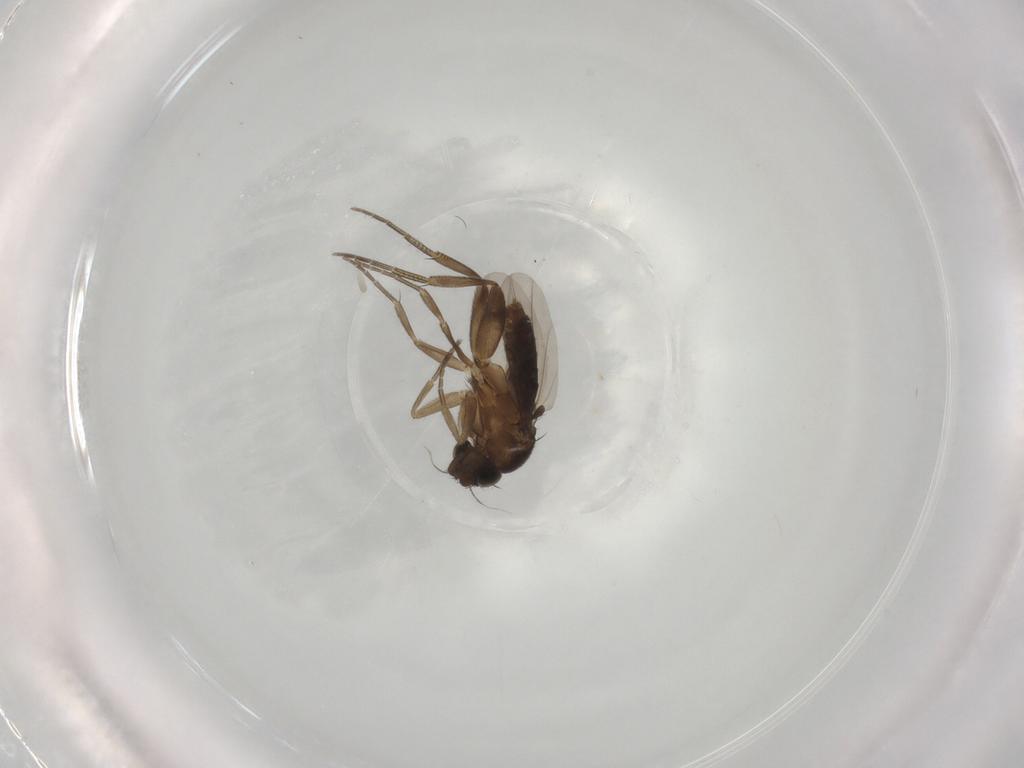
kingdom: Animalia
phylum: Arthropoda
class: Insecta
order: Diptera
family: Phoridae
